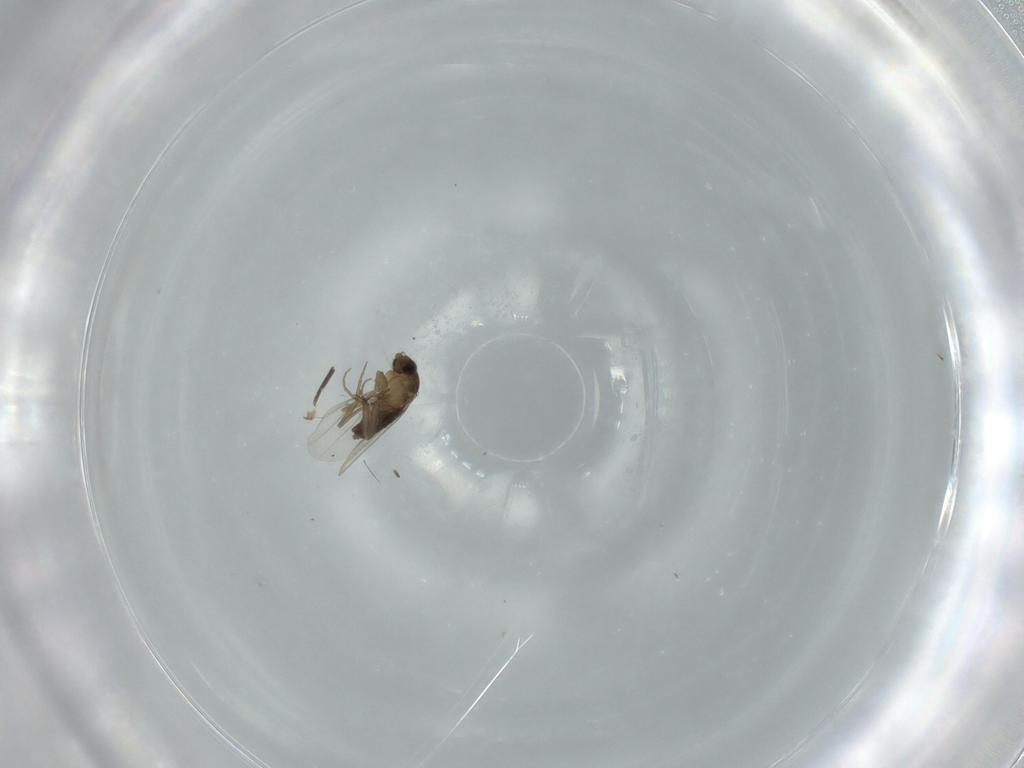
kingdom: Animalia
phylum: Arthropoda
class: Insecta
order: Diptera
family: Phoridae
